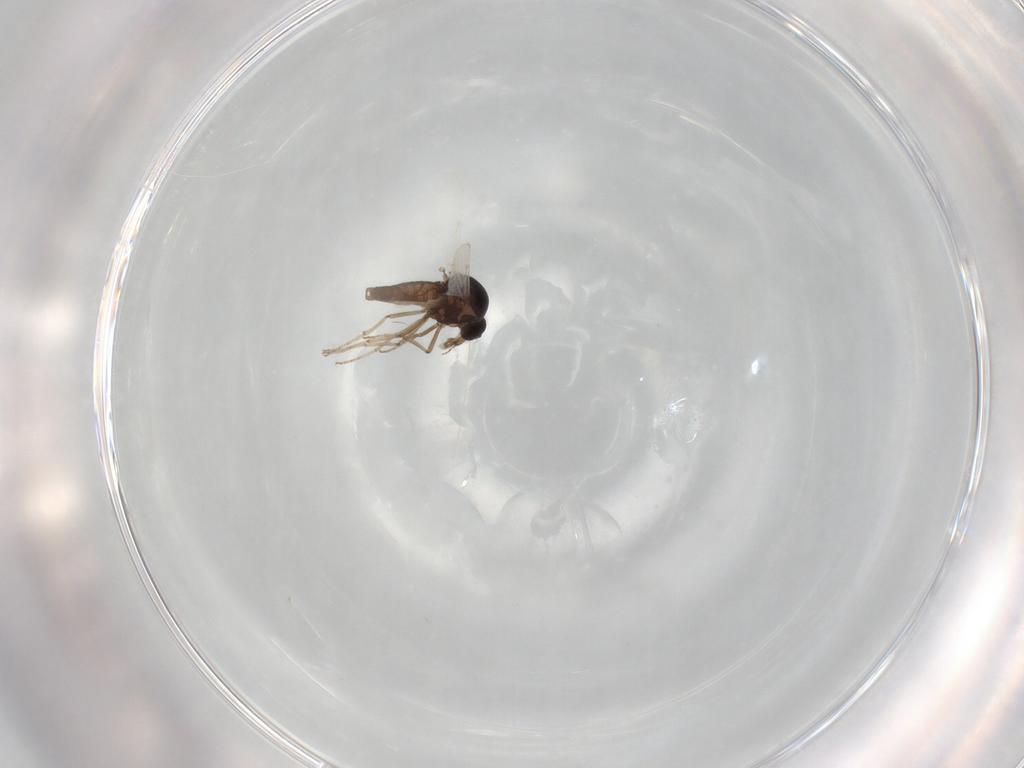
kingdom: Animalia
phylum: Arthropoda
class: Insecta
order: Diptera
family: Ceratopogonidae
